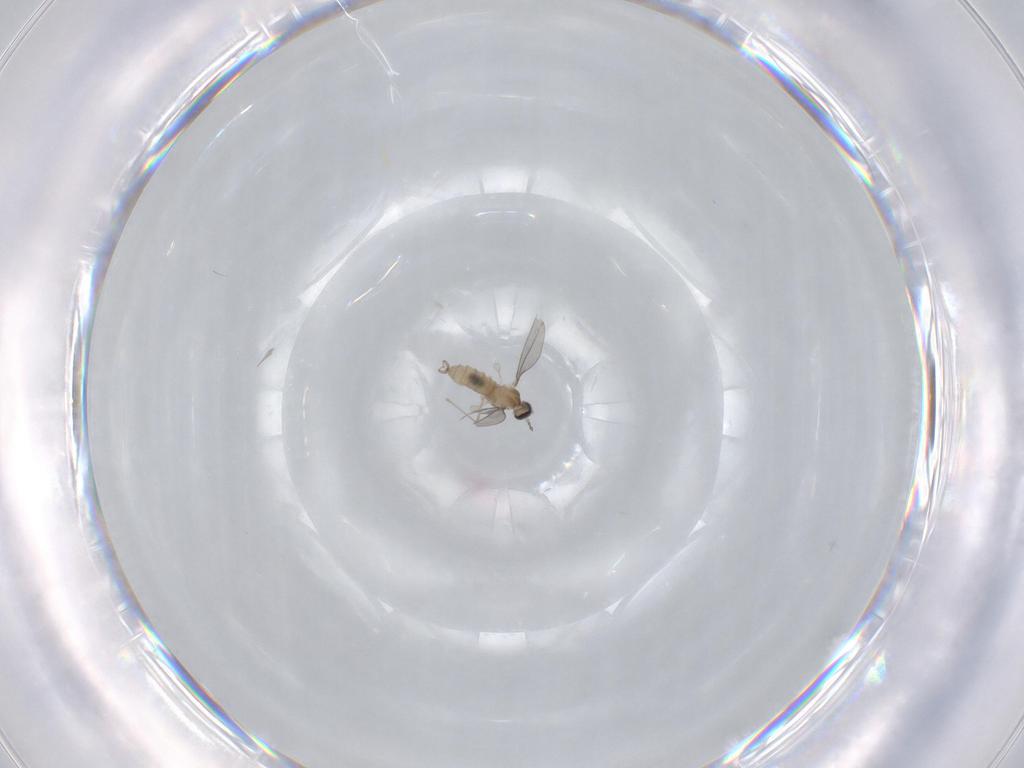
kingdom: Animalia
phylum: Arthropoda
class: Insecta
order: Diptera
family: Cecidomyiidae
